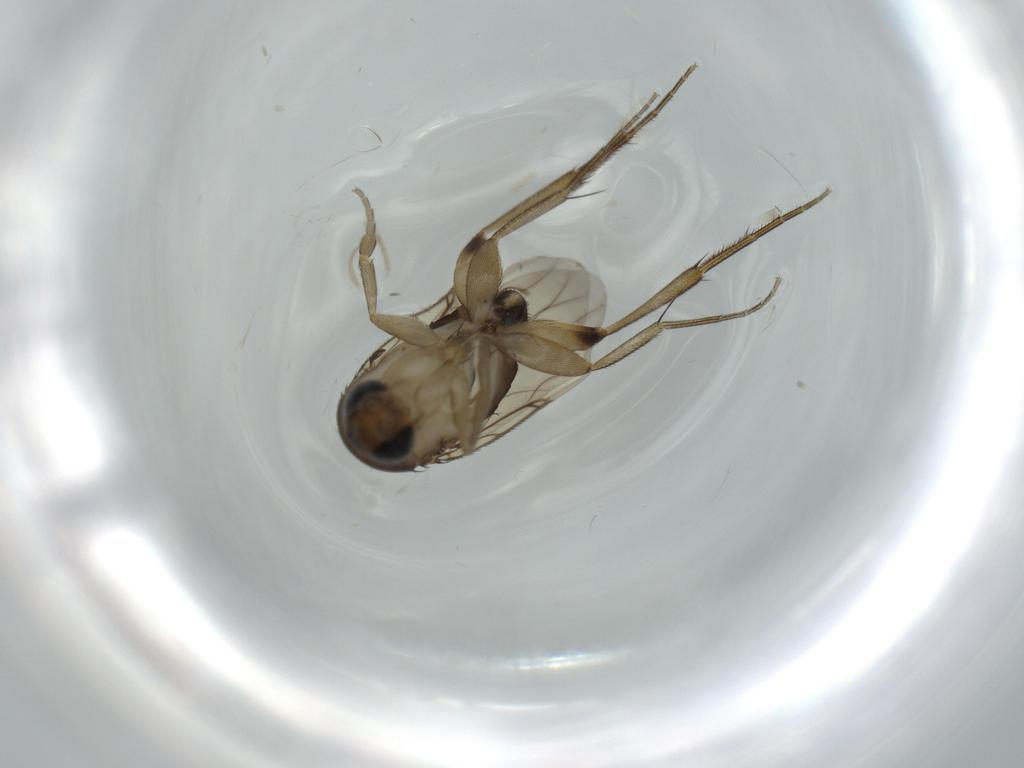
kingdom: Animalia
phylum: Arthropoda
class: Insecta
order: Diptera
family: Phoridae
